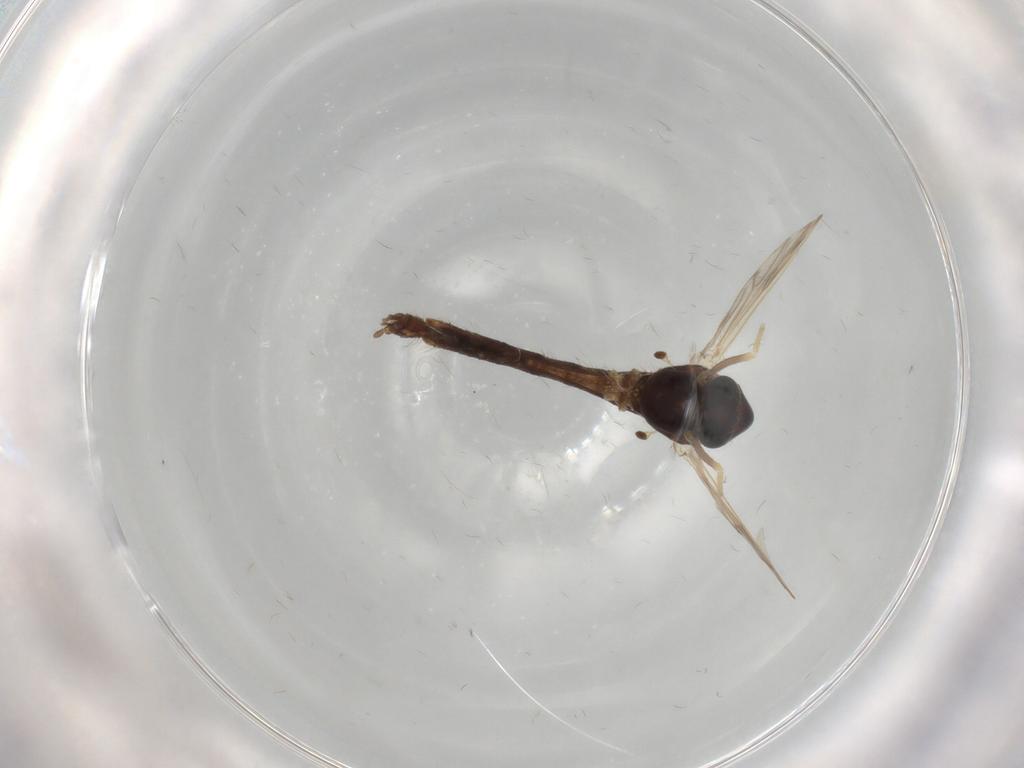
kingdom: Animalia
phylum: Arthropoda
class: Insecta
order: Diptera
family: Chironomidae
